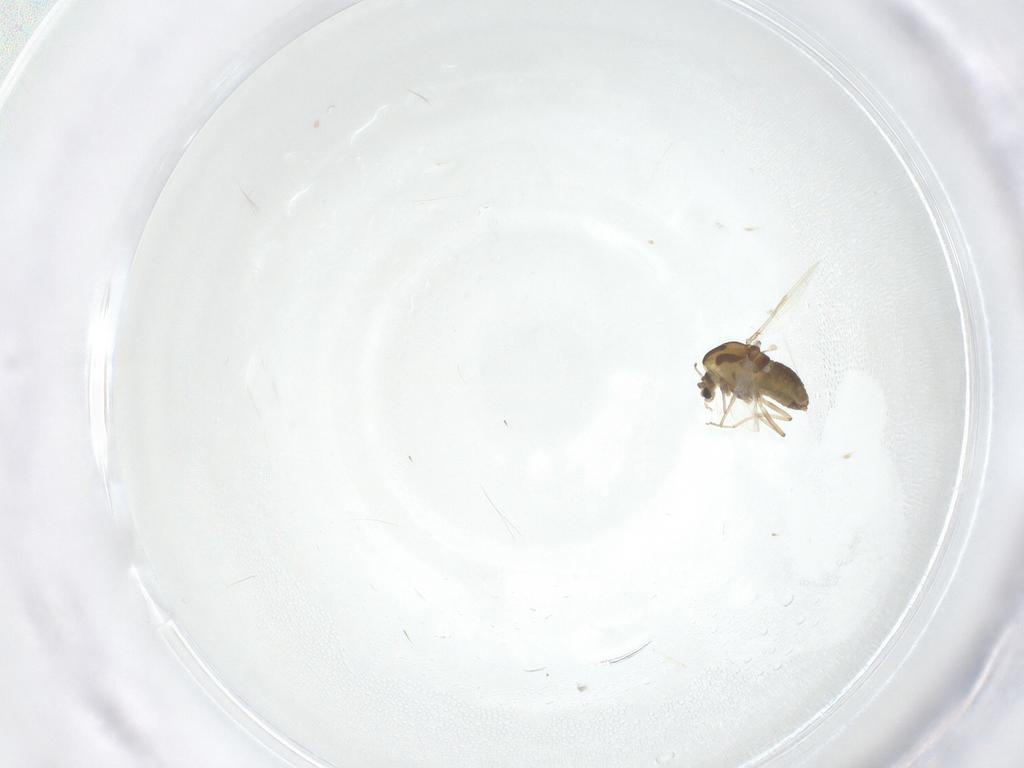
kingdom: Animalia
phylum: Arthropoda
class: Insecta
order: Diptera
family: Chironomidae
